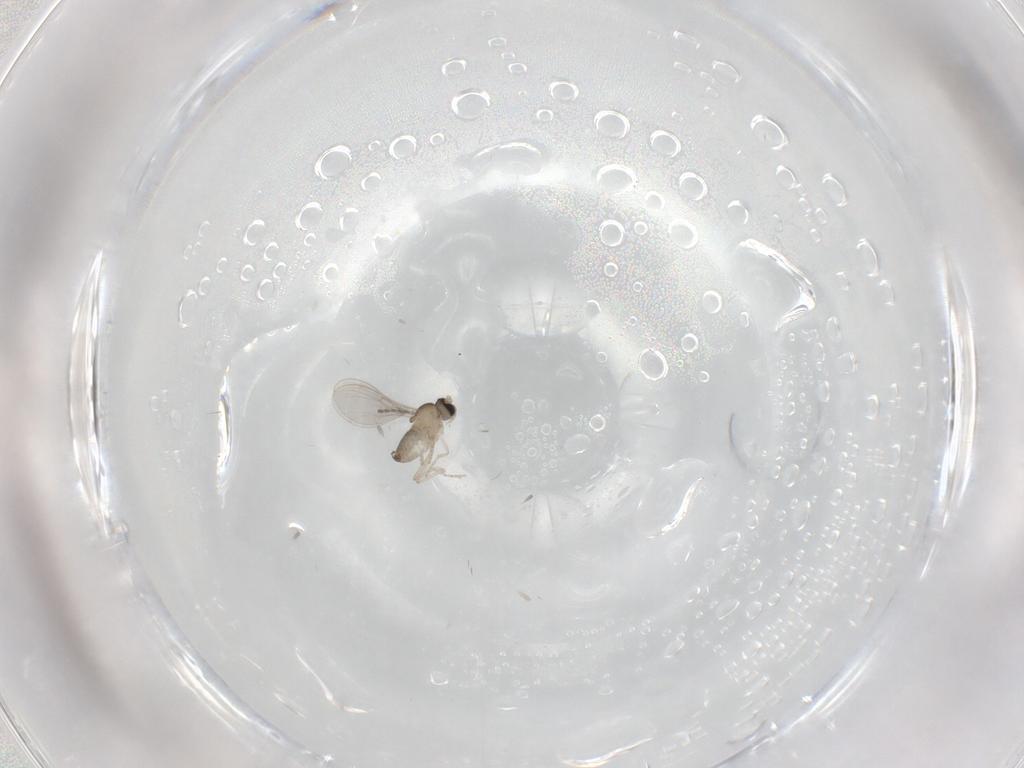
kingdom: Animalia
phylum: Arthropoda
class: Insecta
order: Diptera
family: Cecidomyiidae
